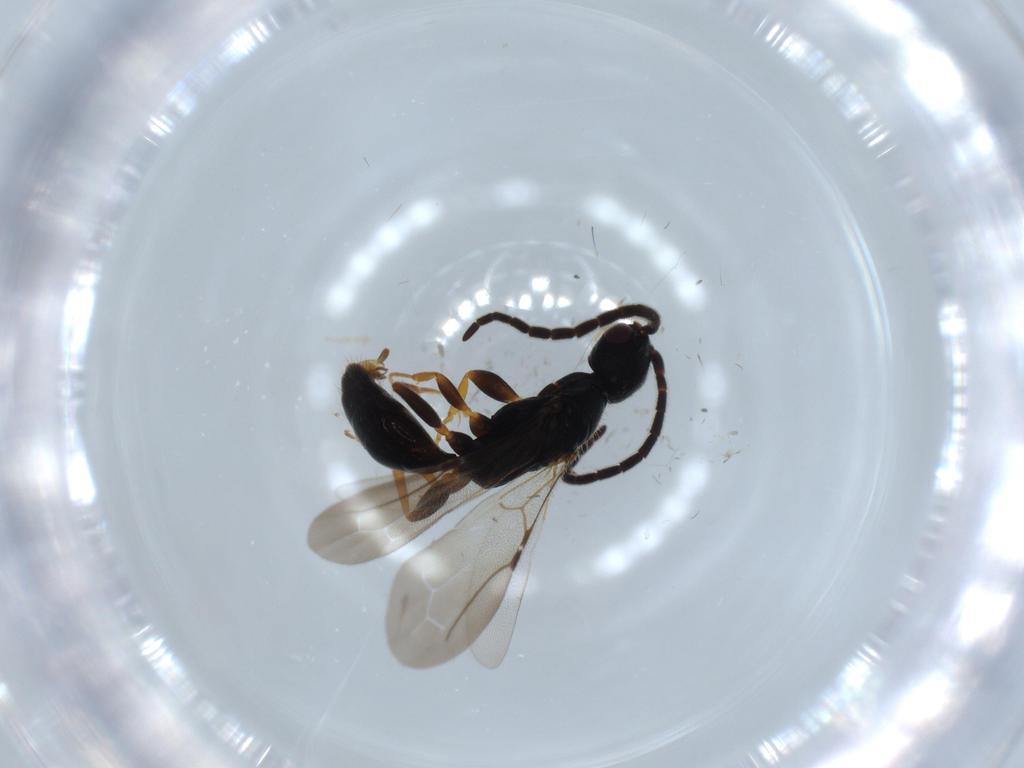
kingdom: Animalia
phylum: Arthropoda
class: Insecta
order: Hymenoptera
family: Bethylidae
